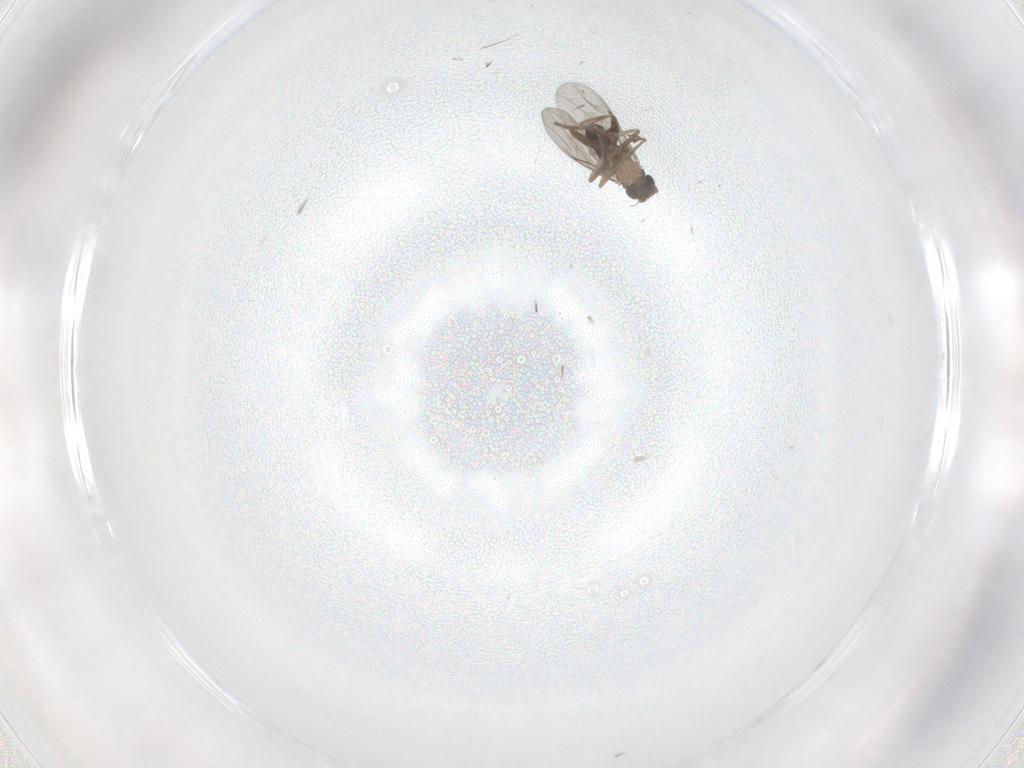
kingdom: Animalia
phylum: Arthropoda
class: Insecta
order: Diptera
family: Phoridae
